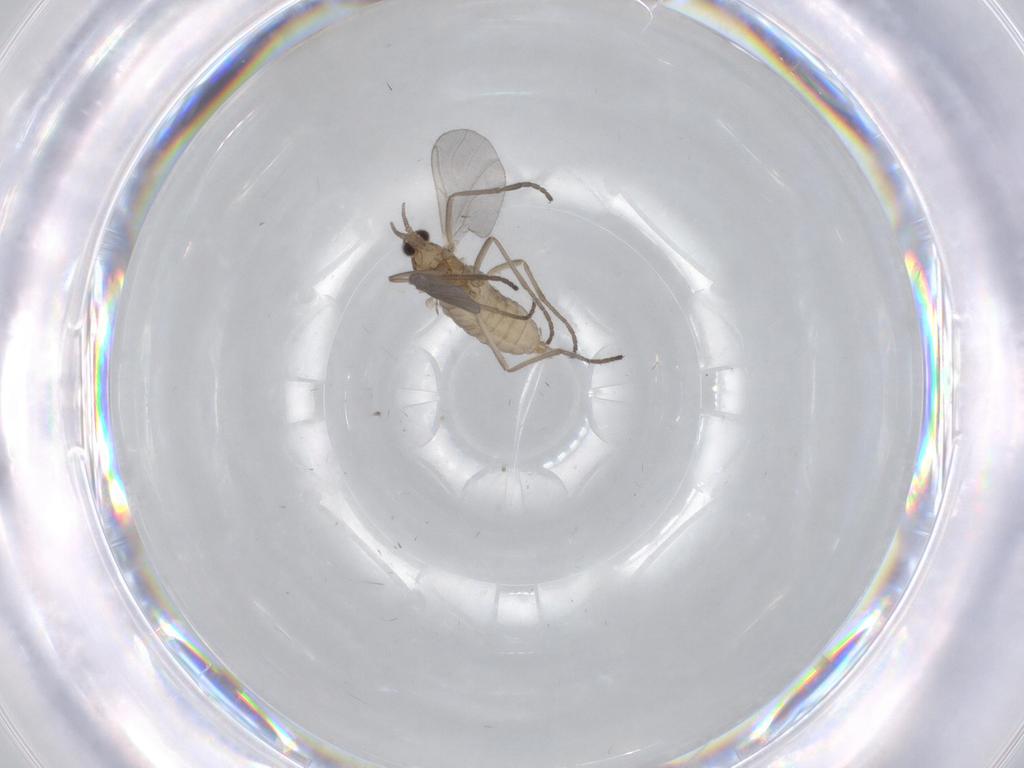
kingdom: Animalia
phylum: Arthropoda
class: Insecta
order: Diptera
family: Cecidomyiidae
